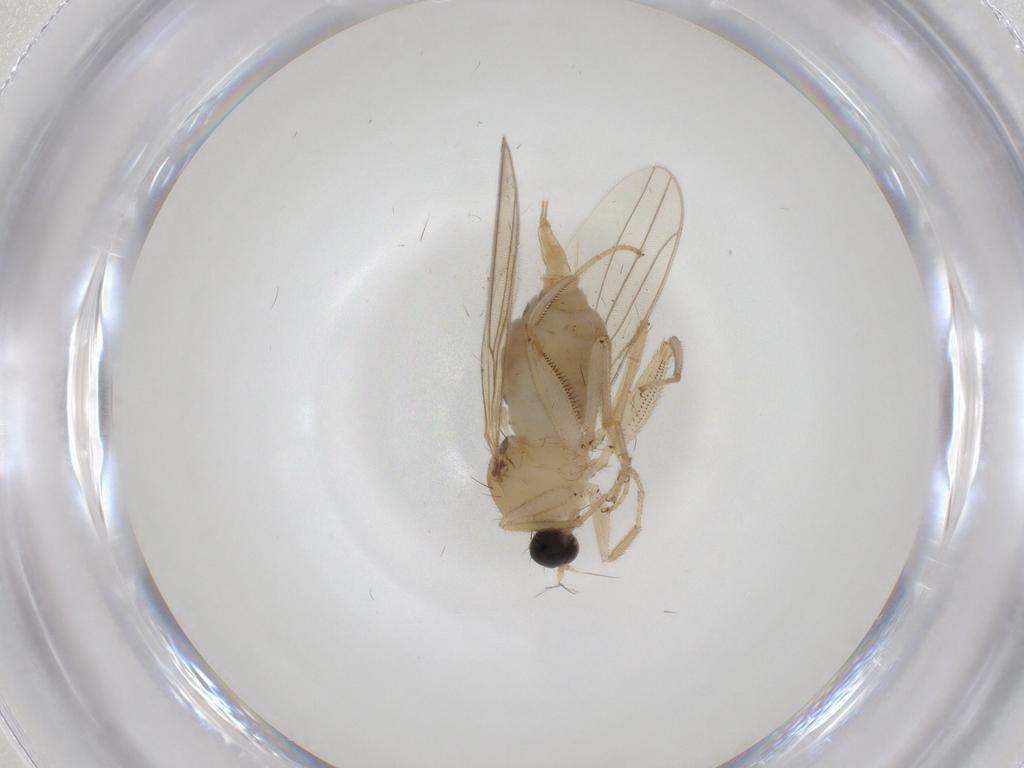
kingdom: Animalia
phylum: Arthropoda
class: Insecta
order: Diptera
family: Hybotidae
